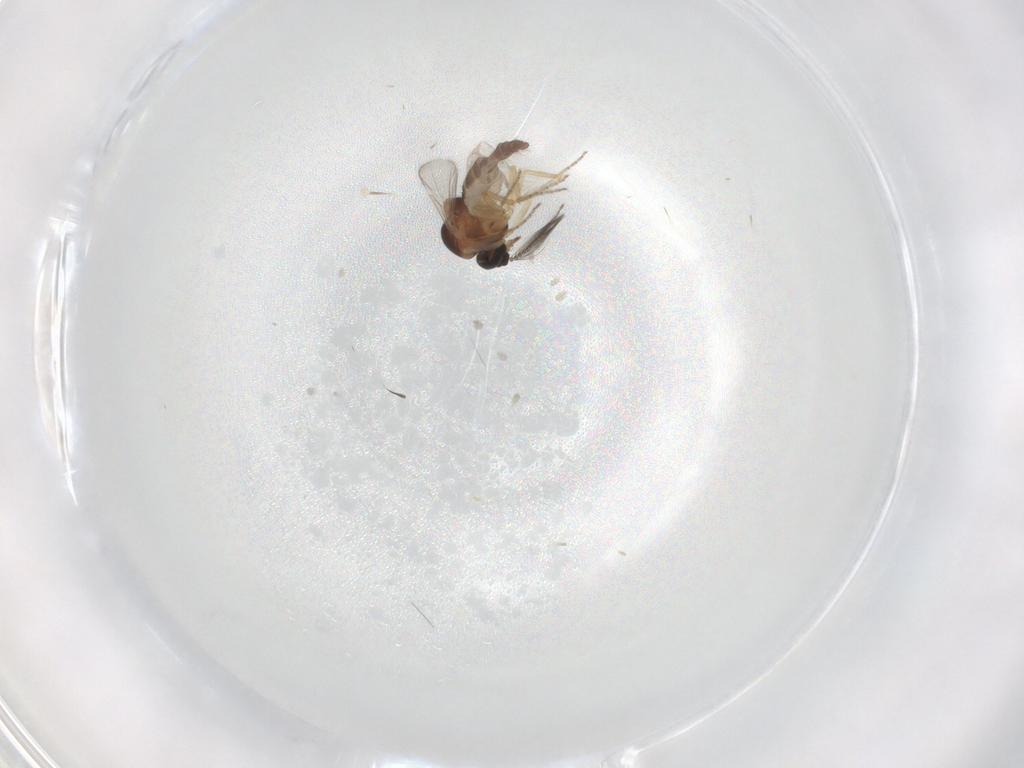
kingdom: Animalia
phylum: Arthropoda
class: Insecta
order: Diptera
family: Ceratopogonidae
